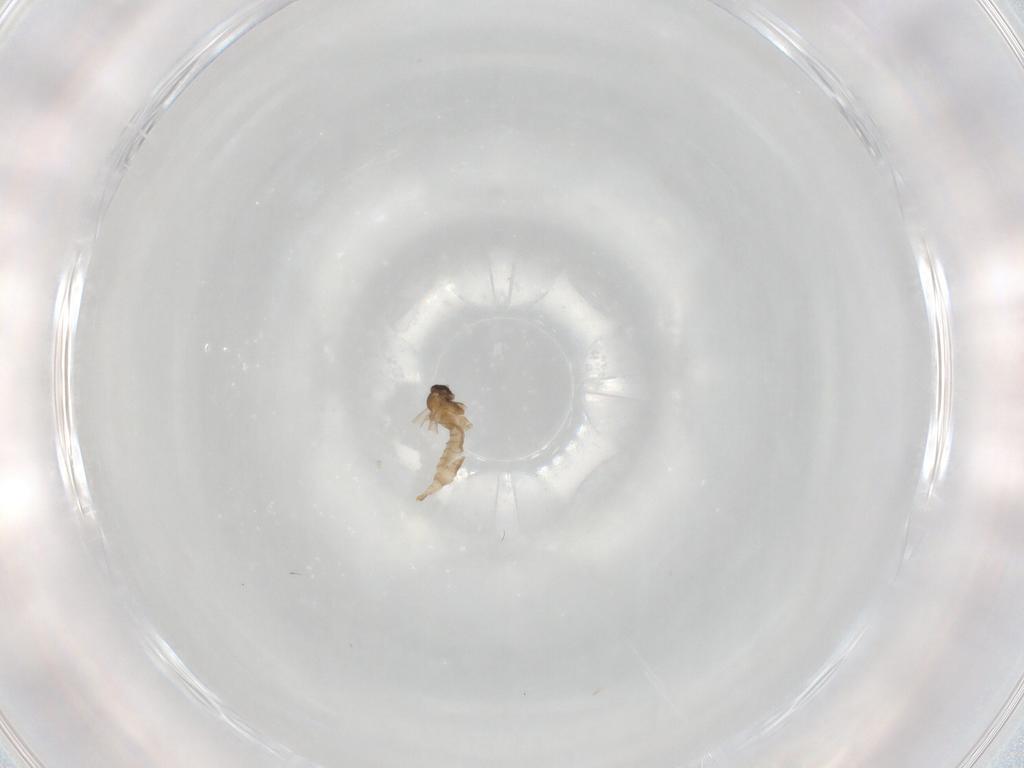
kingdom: Animalia
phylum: Arthropoda
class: Insecta
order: Diptera
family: Cecidomyiidae
